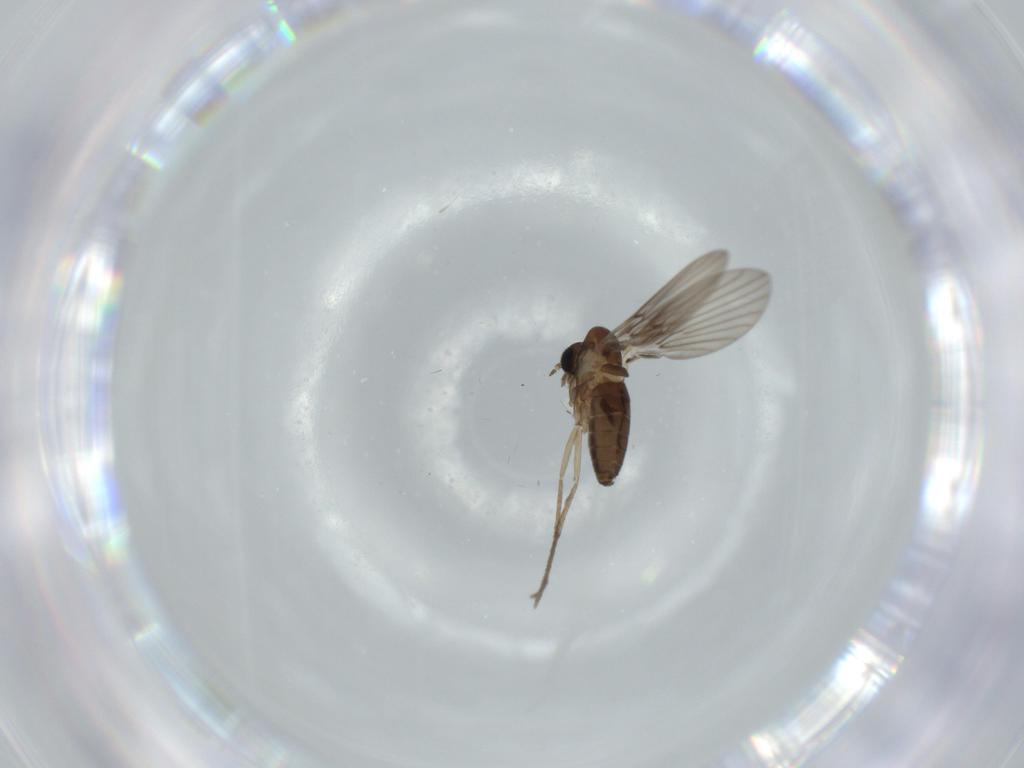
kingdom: Animalia
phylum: Arthropoda
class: Insecta
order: Diptera
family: Psychodidae
